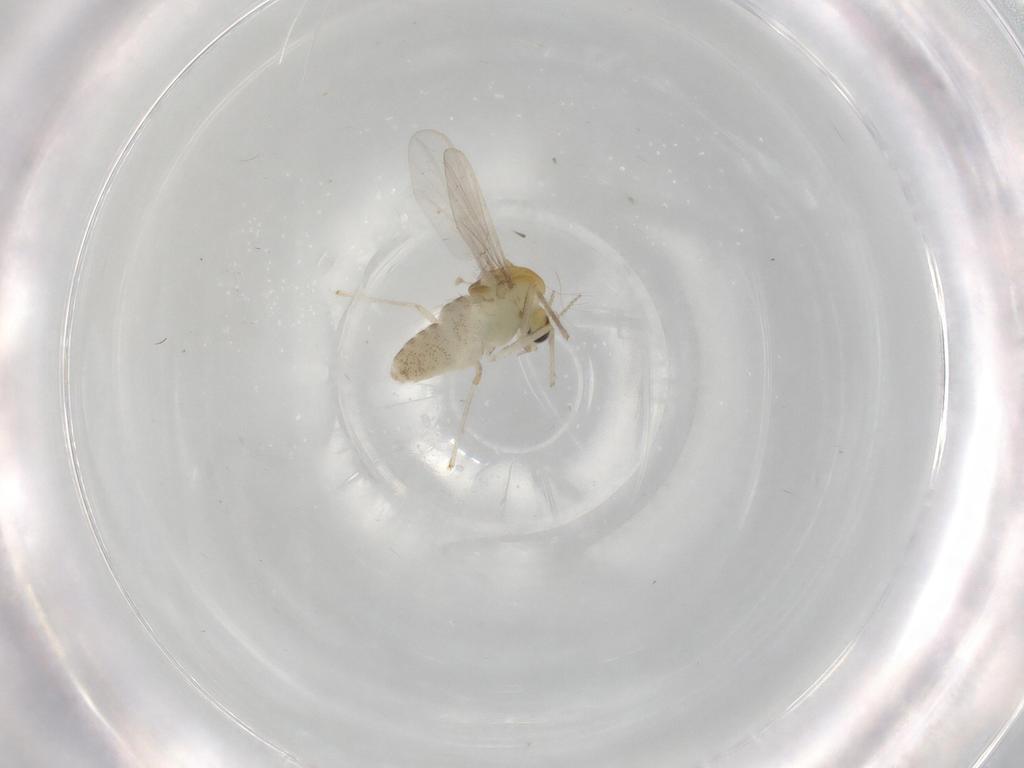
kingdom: Animalia
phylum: Arthropoda
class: Insecta
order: Diptera
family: Chironomidae
